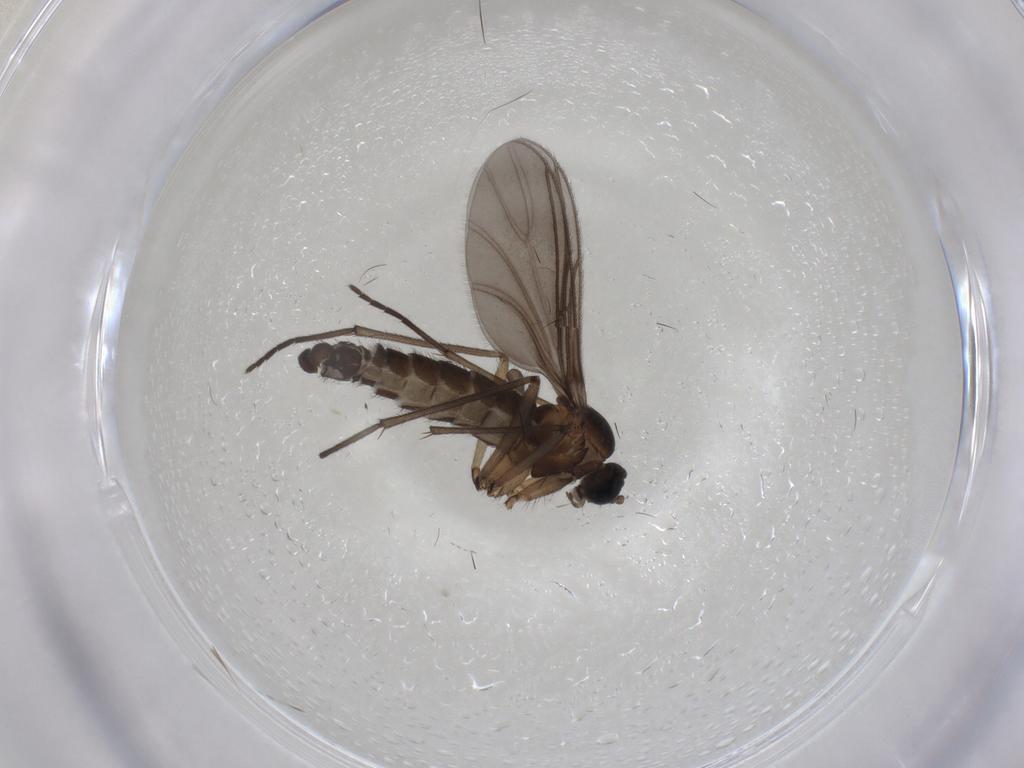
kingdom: Animalia
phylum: Arthropoda
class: Insecta
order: Diptera
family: Sciaridae
